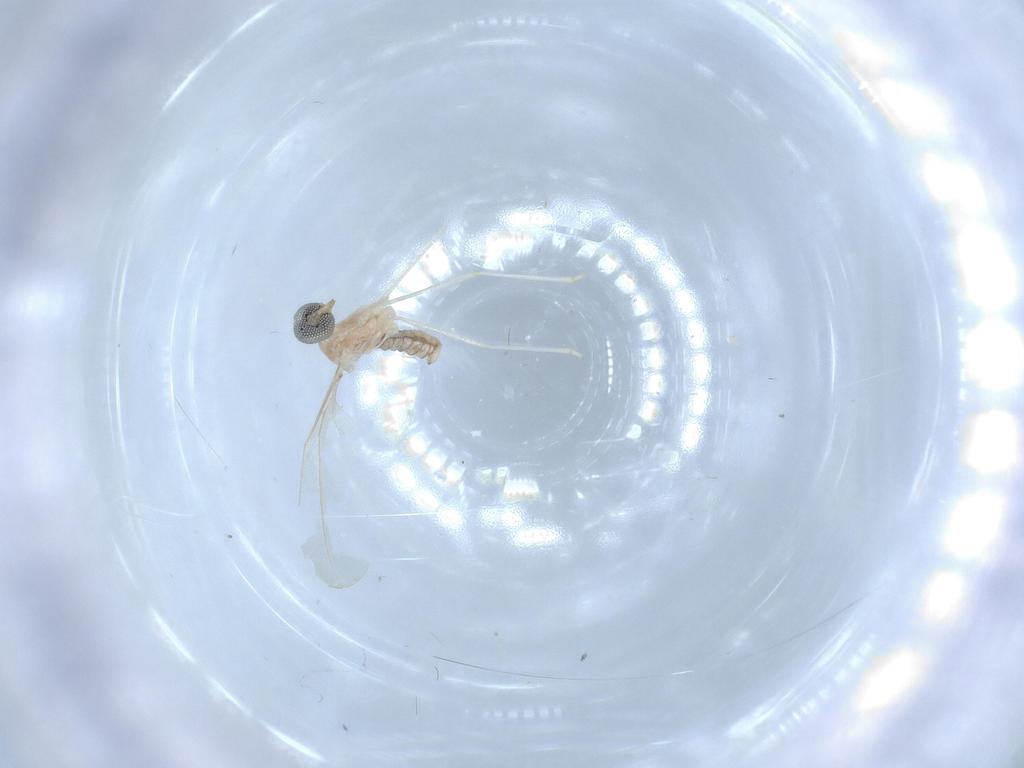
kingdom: Animalia
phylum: Arthropoda
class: Insecta
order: Diptera
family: Cecidomyiidae
